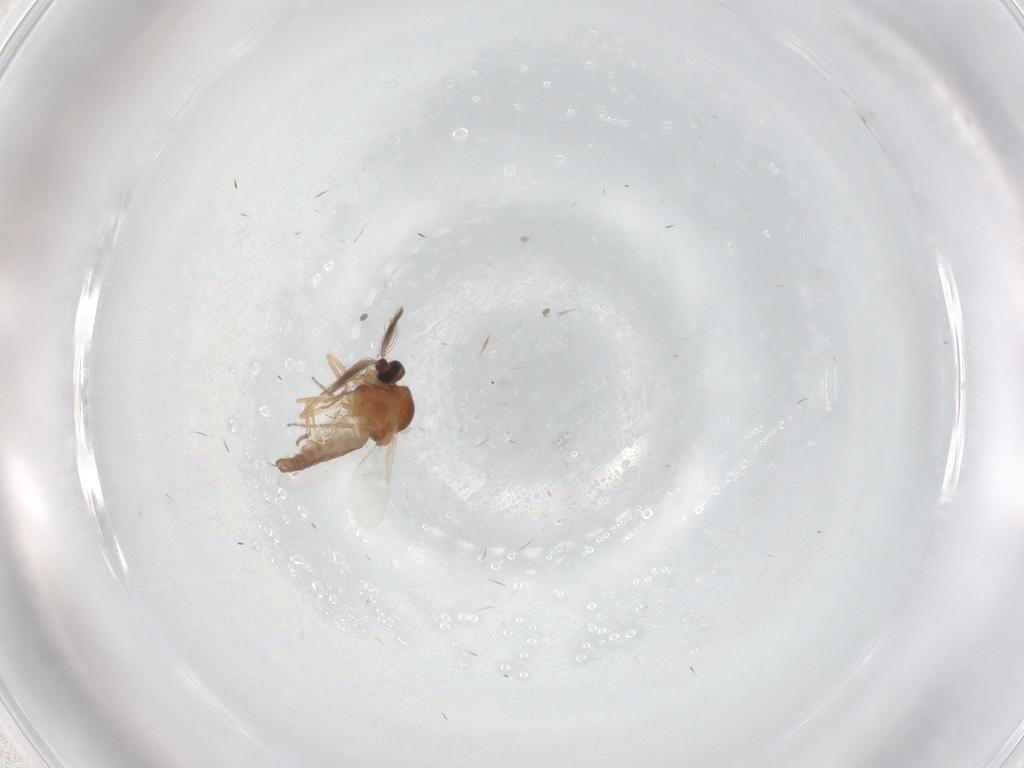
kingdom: Animalia
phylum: Arthropoda
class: Insecta
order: Diptera
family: Ceratopogonidae
